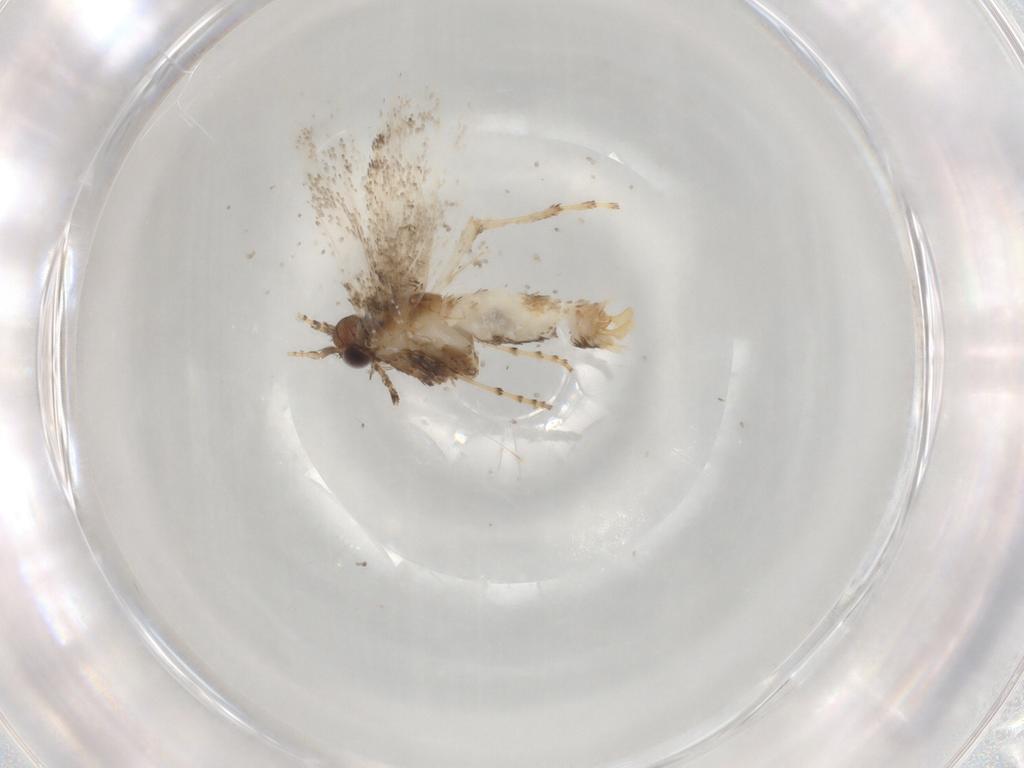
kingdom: Animalia
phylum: Arthropoda
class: Insecta
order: Lepidoptera
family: Gracillariidae
